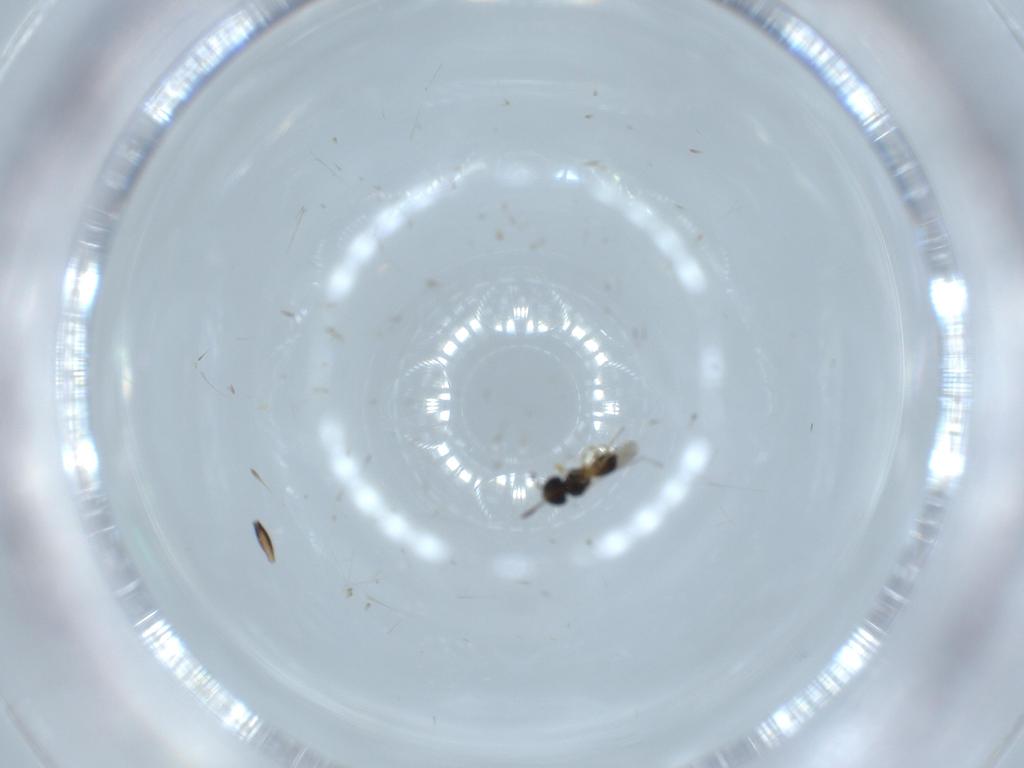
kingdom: Animalia
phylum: Arthropoda
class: Insecta
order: Hymenoptera
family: Scelionidae
